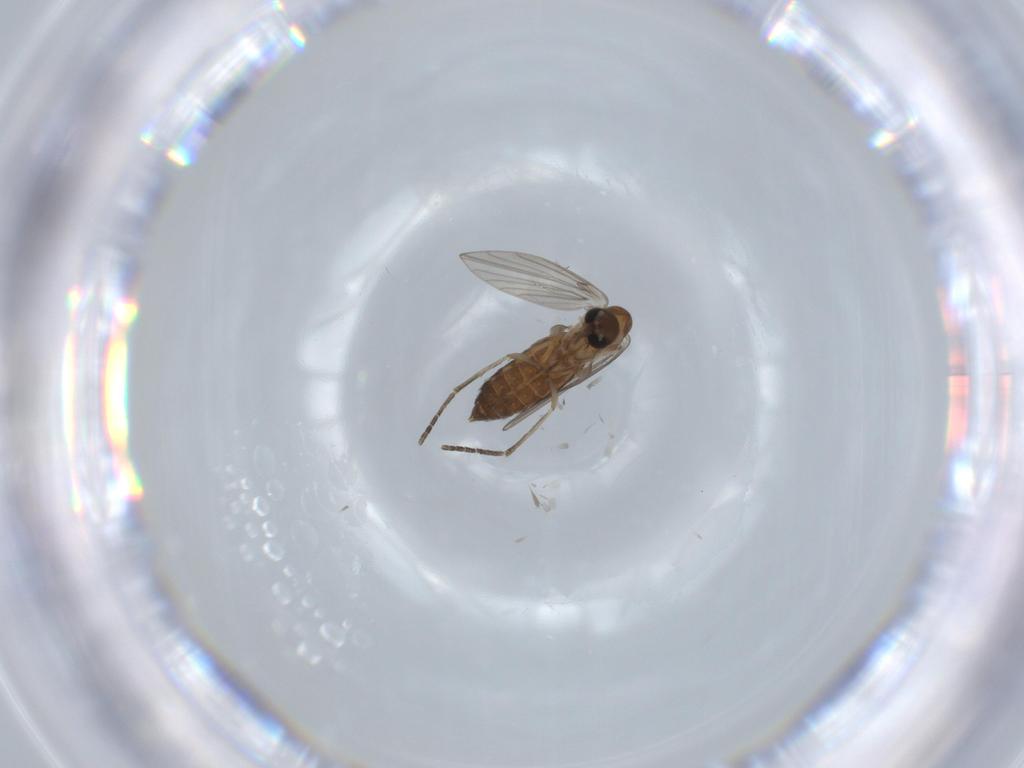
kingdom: Animalia
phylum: Arthropoda
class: Insecta
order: Diptera
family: Psychodidae
